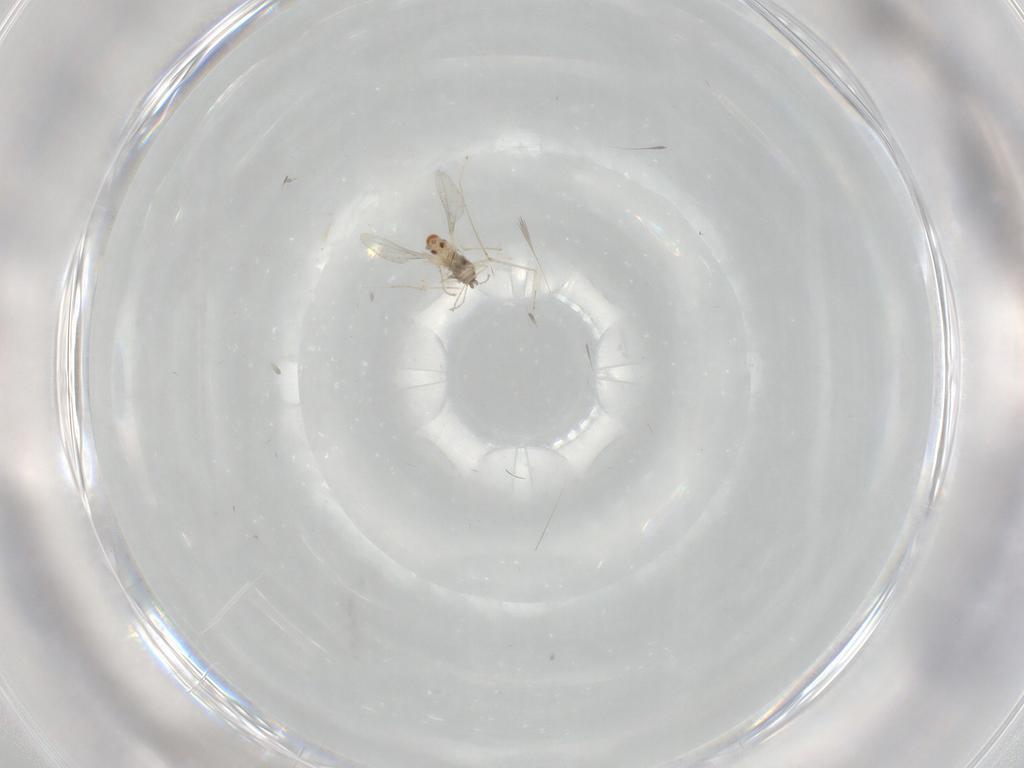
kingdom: Animalia
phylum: Arthropoda
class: Insecta
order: Diptera
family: Cecidomyiidae
